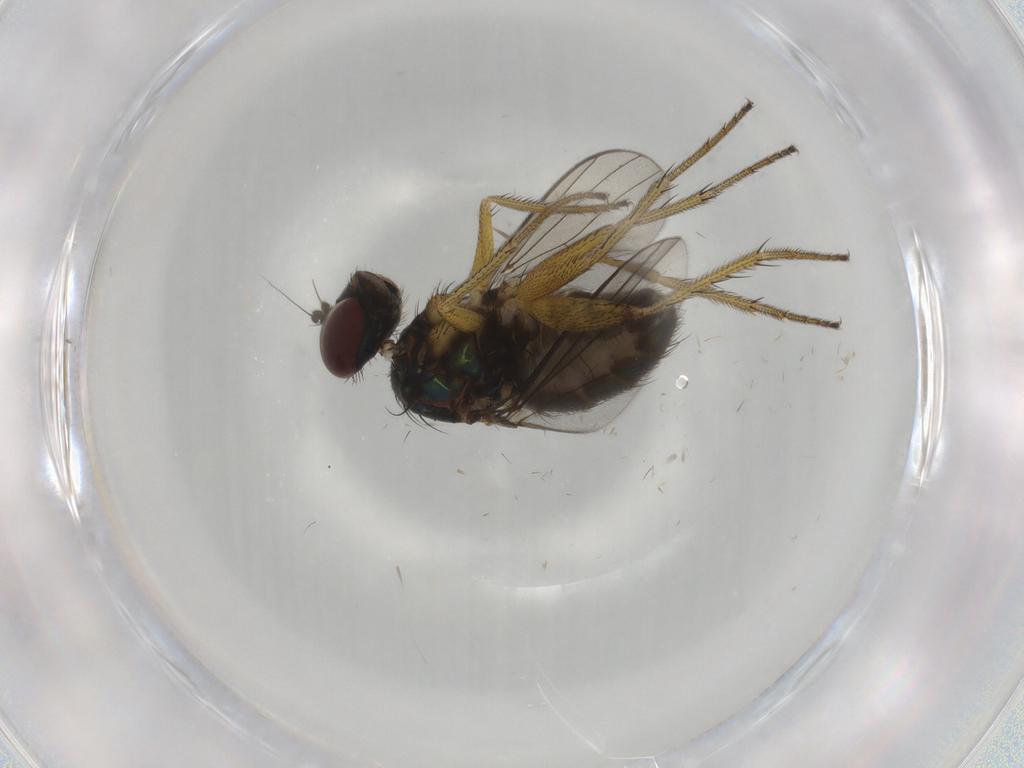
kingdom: Animalia
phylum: Arthropoda
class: Insecta
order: Diptera
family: Dolichopodidae
